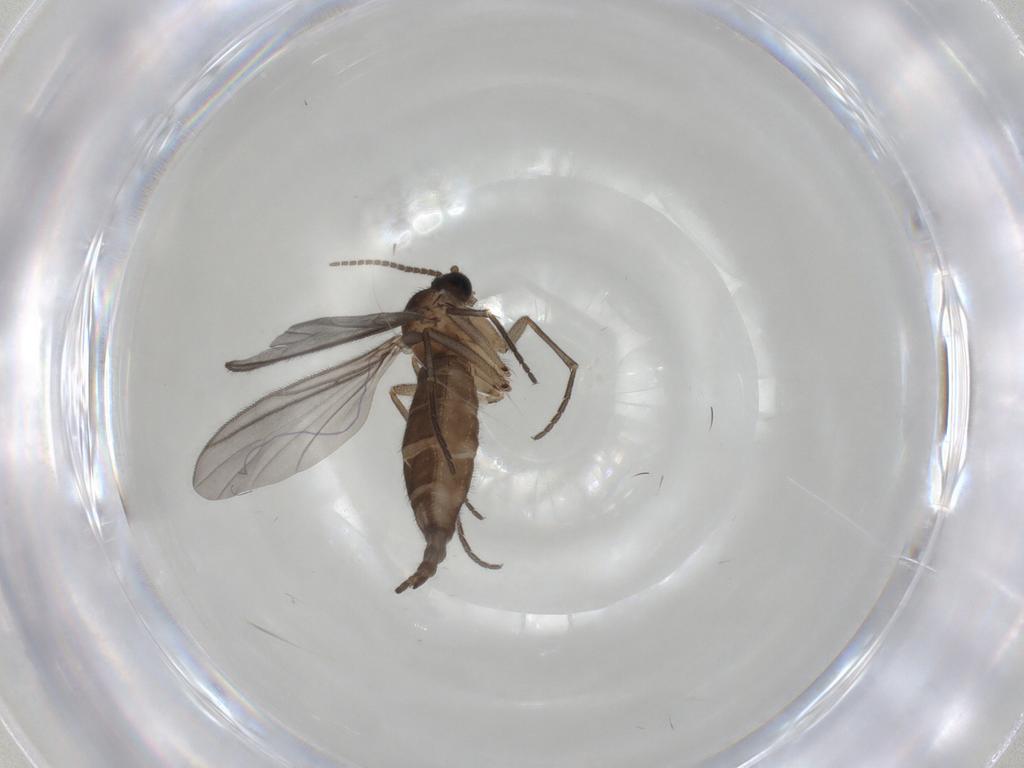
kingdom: Animalia
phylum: Arthropoda
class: Insecta
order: Diptera
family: Sciaridae
